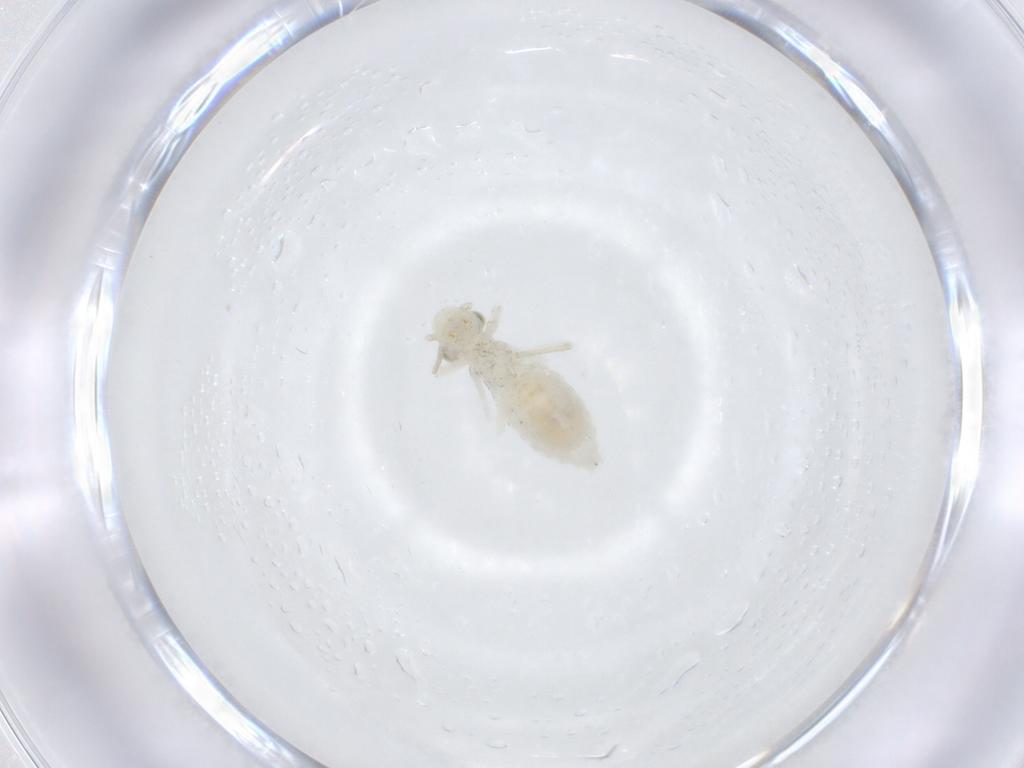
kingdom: Animalia
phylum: Arthropoda
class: Insecta
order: Psocodea
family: Caeciliusidae
